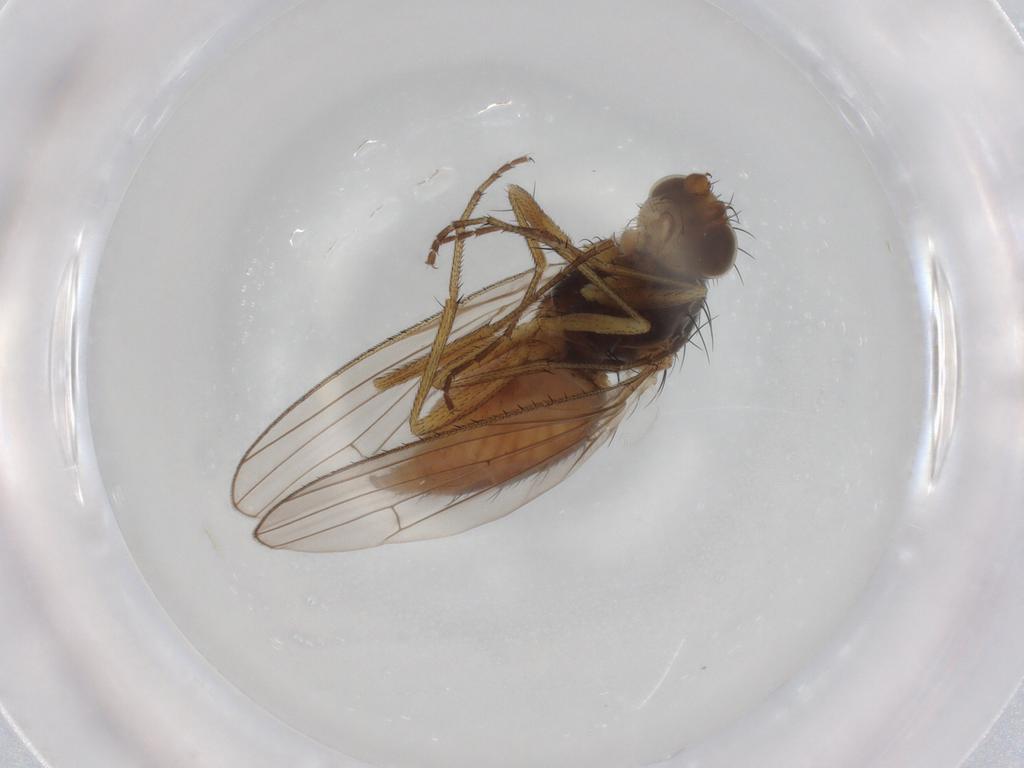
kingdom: Animalia
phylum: Arthropoda
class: Insecta
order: Diptera
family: Heleomyzidae
